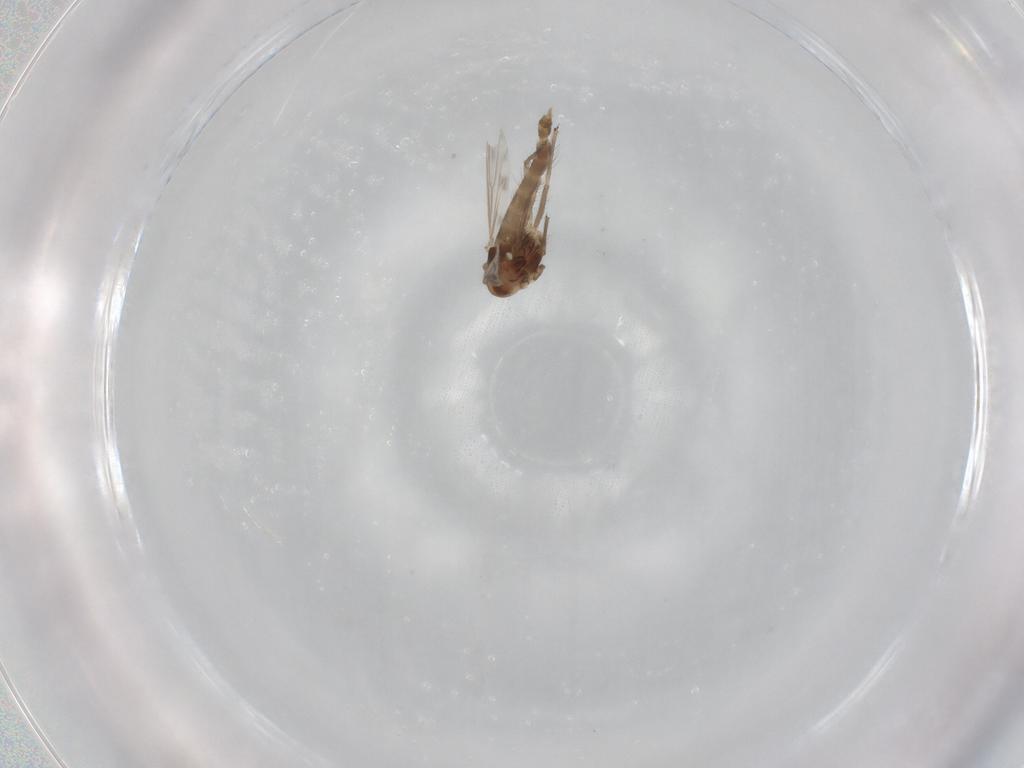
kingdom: Animalia
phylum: Arthropoda
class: Insecta
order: Diptera
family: Chironomidae
